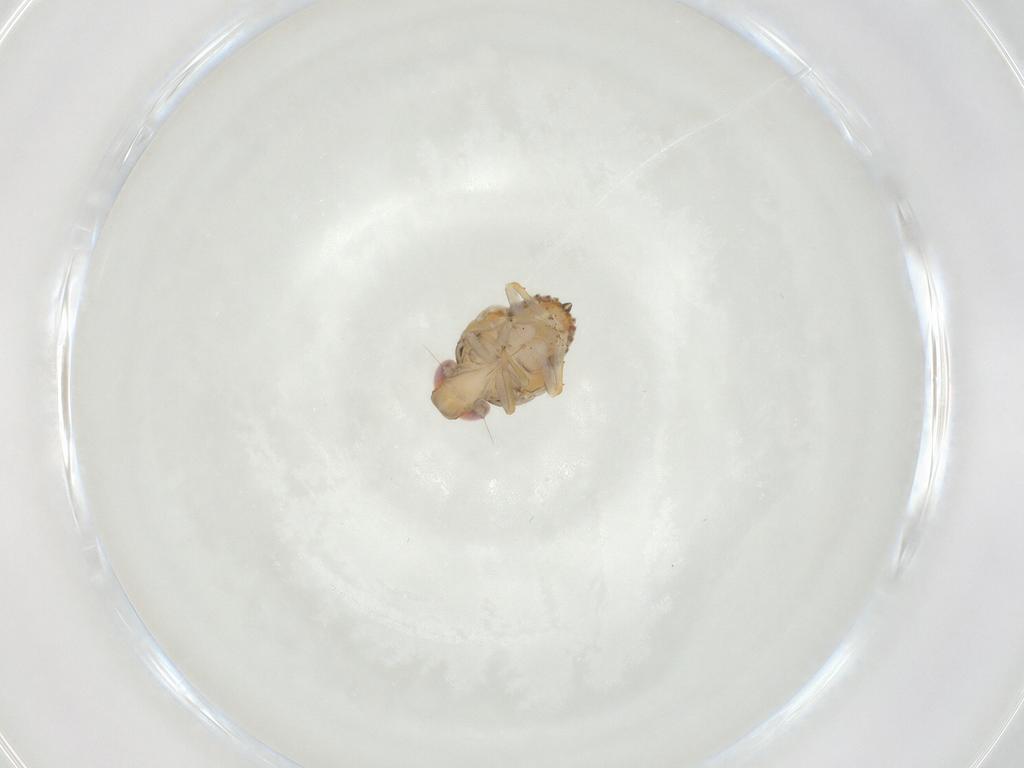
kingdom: Animalia
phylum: Arthropoda
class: Insecta
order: Hemiptera
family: Issidae
